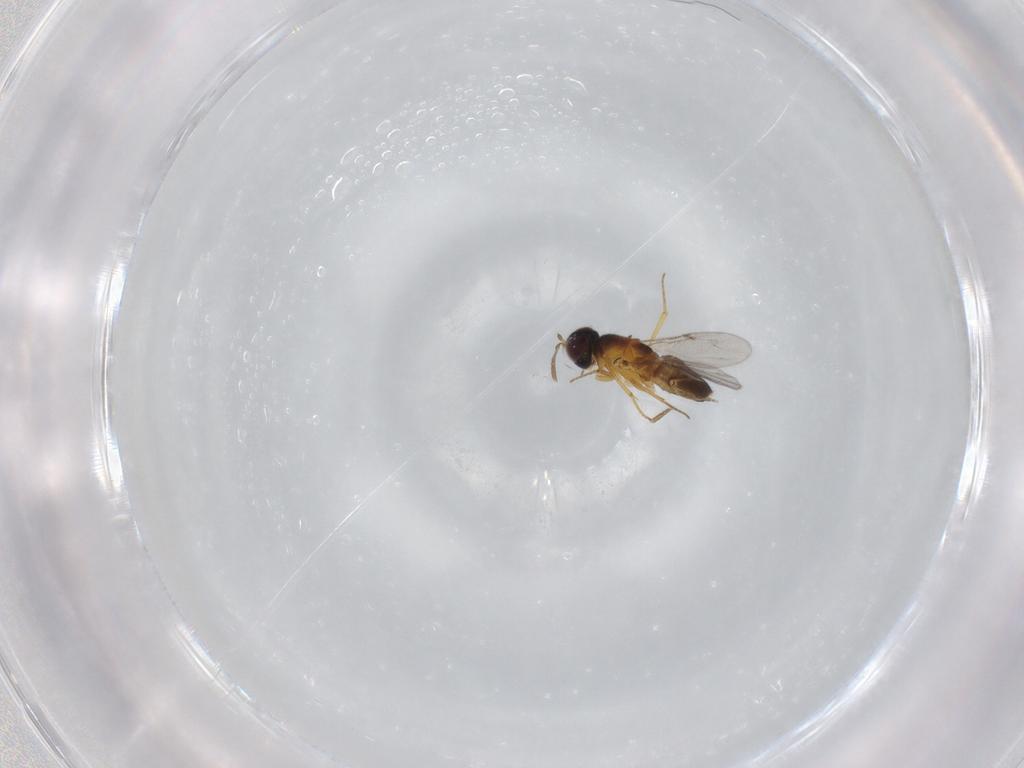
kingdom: Animalia
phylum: Arthropoda
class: Insecta
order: Hymenoptera
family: Encyrtidae
